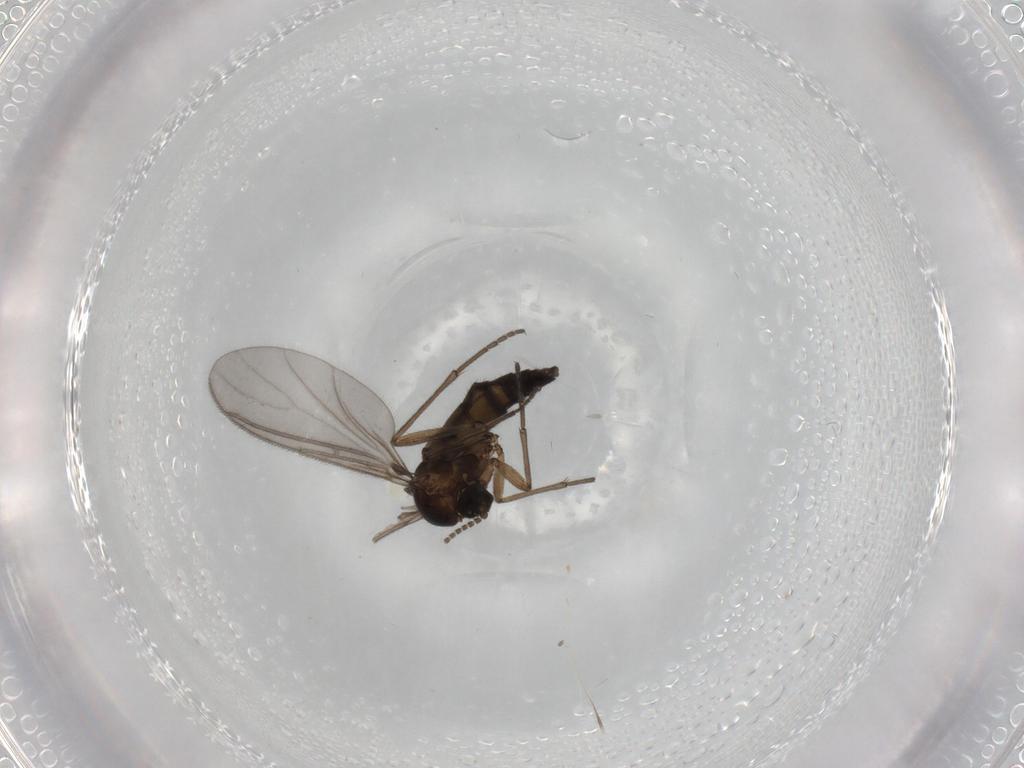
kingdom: Animalia
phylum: Arthropoda
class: Insecta
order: Diptera
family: Sciaridae
